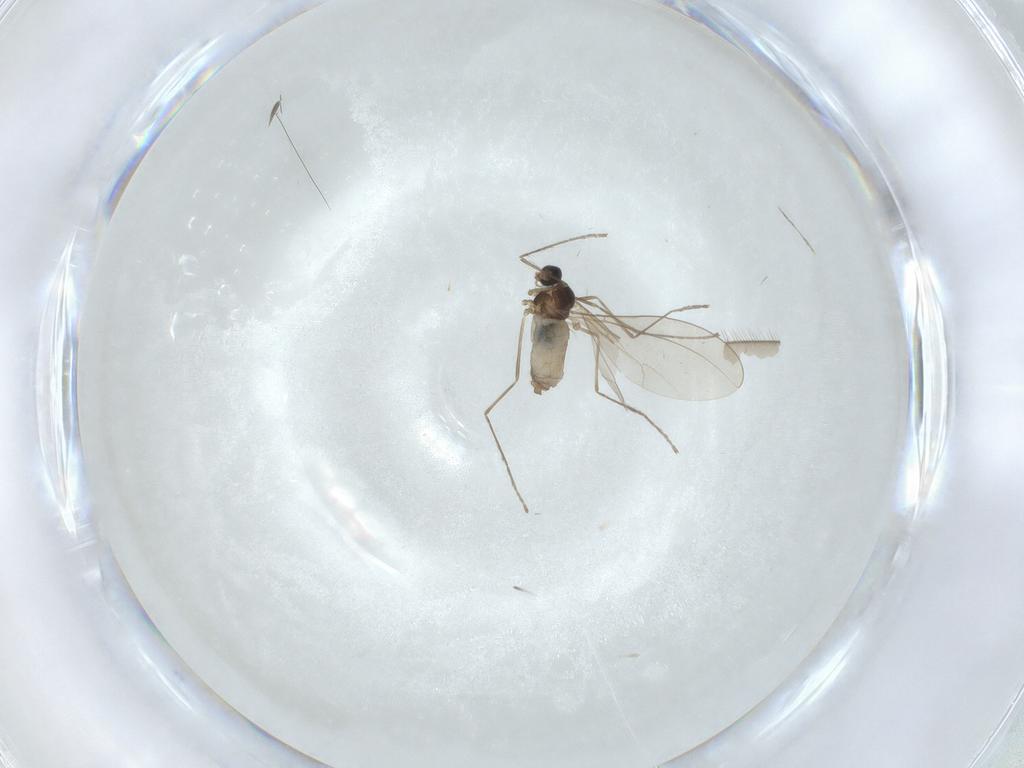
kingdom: Animalia
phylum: Arthropoda
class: Insecta
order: Diptera
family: Cecidomyiidae
